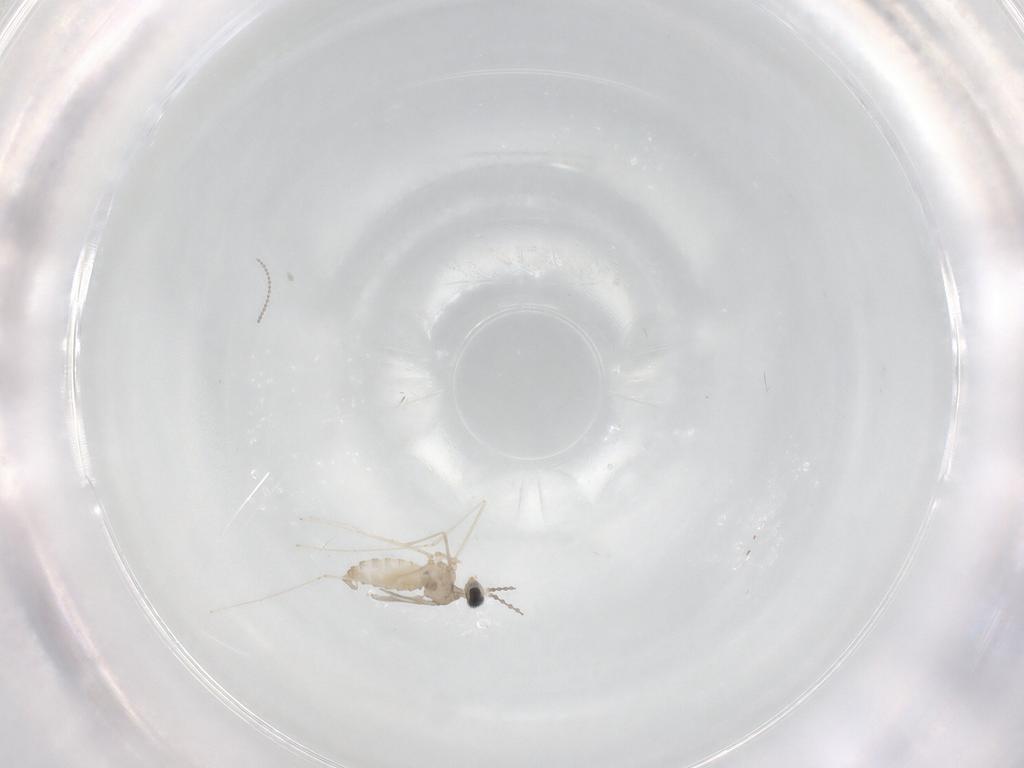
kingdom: Animalia
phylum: Arthropoda
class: Insecta
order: Diptera
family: Cecidomyiidae
